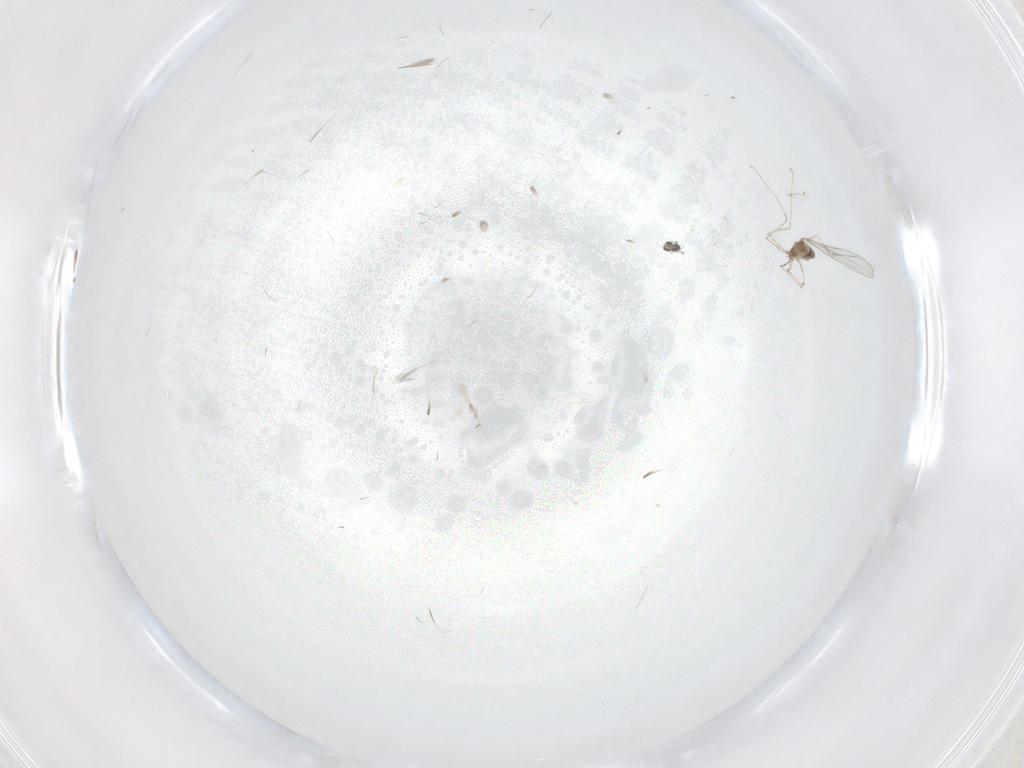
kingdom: Animalia
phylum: Arthropoda
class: Insecta
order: Diptera
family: Cecidomyiidae
